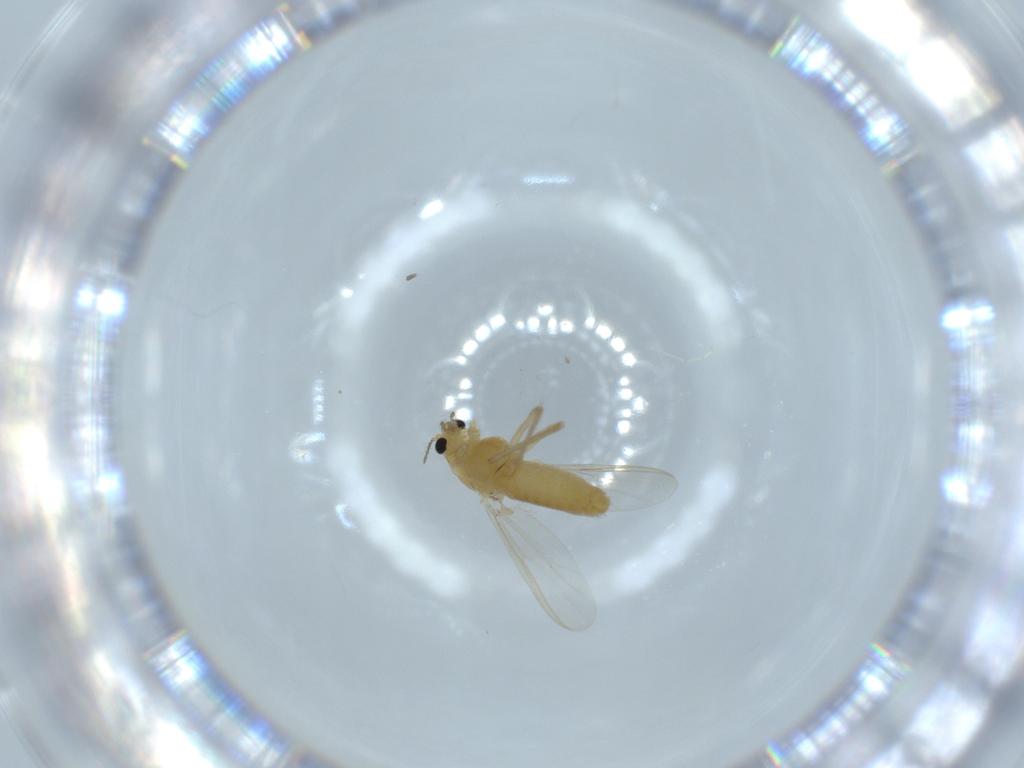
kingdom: Animalia
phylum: Arthropoda
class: Insecta
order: Diptera
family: Chironomidae
